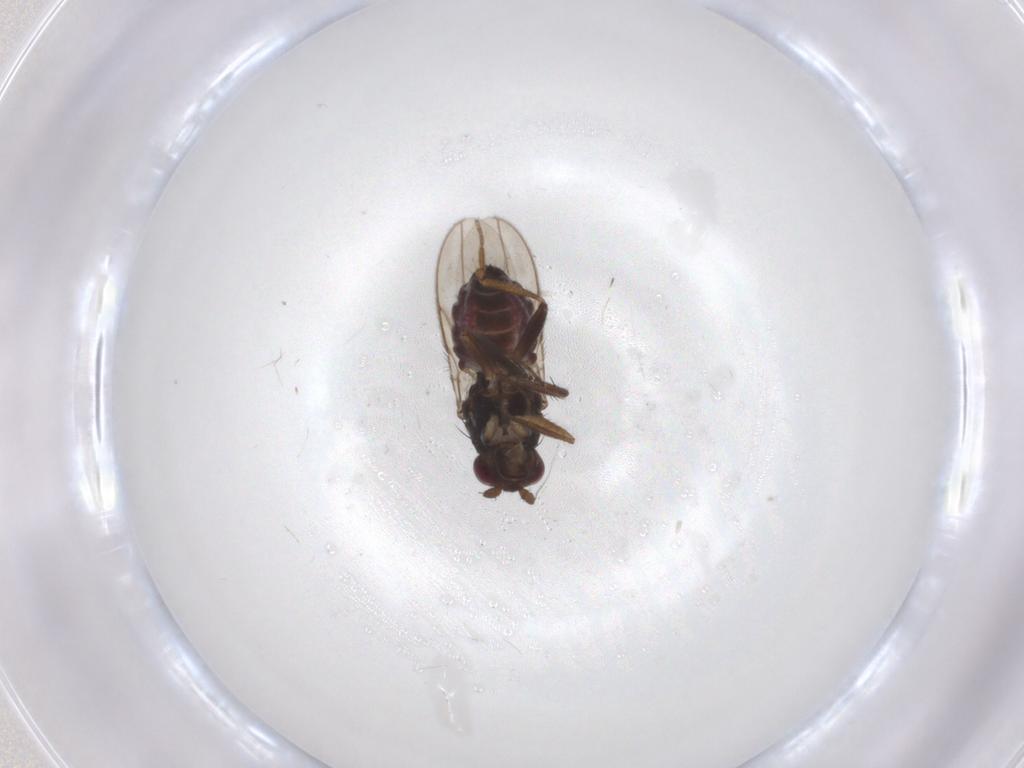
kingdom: Animalia
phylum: Arthropoda
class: Insecta
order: Diptera
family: Sphaeroceridae
